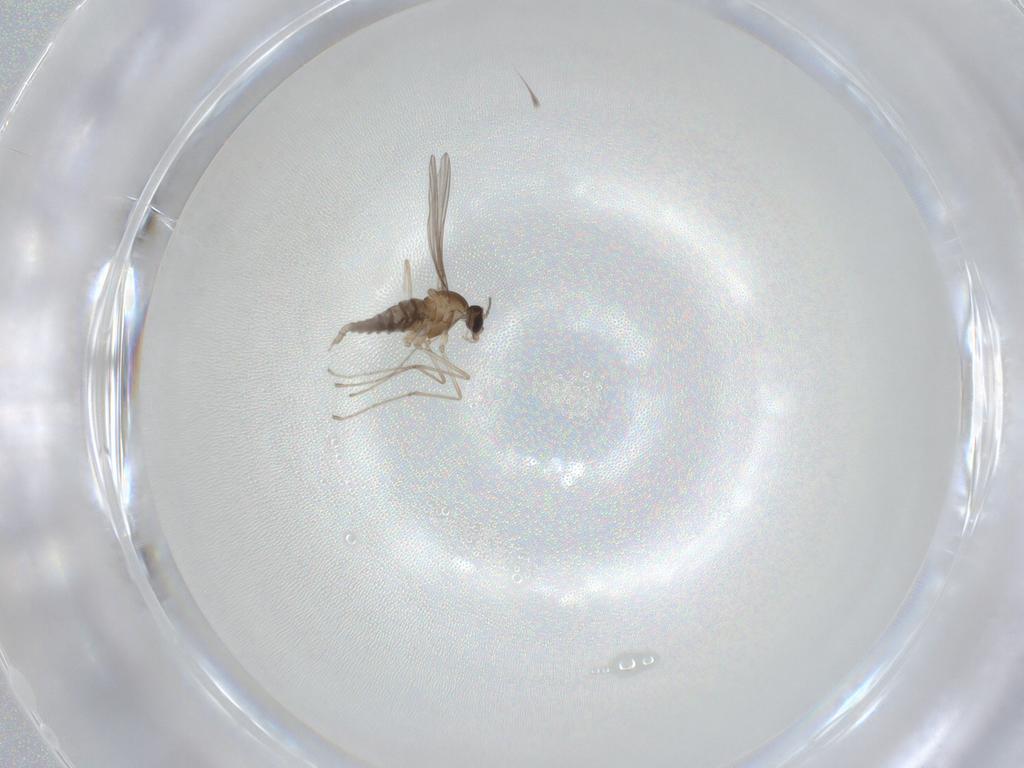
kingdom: Animalia
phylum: Arthropoda
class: Insecta
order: Diptera
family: Cecidomyiidae
